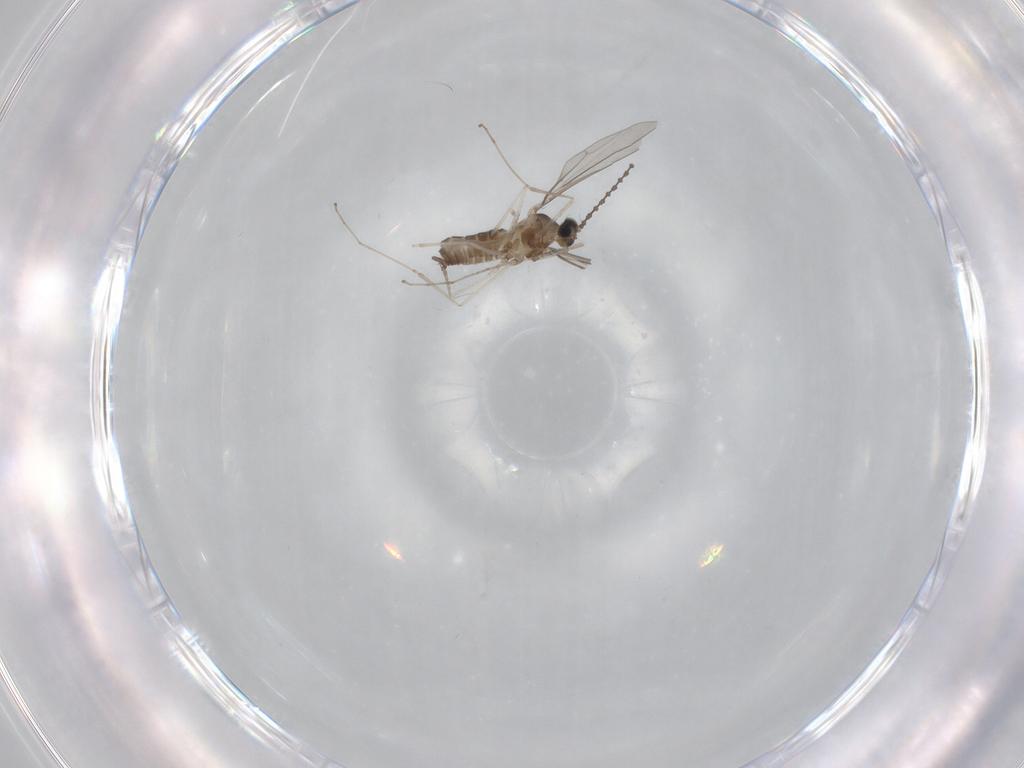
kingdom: Animalia
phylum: Arthropoda
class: Insecta
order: Diptera
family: Cecidomyiidae
